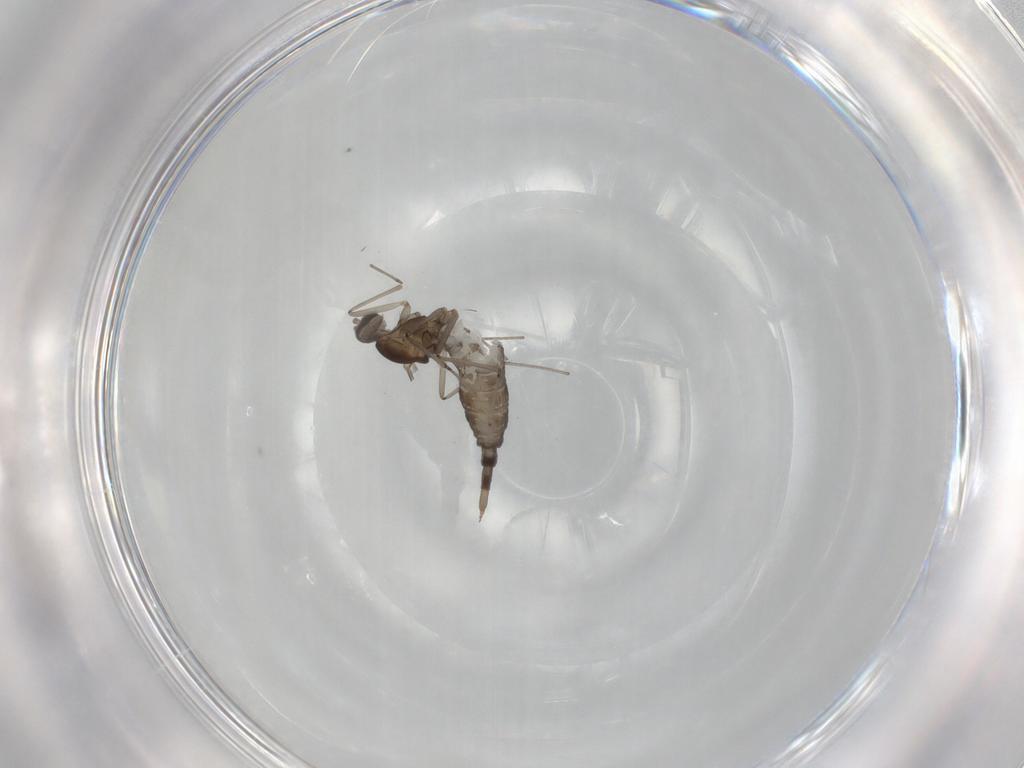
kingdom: Animalia
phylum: Arthropoda
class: Insecta
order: Diptera
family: Cecidomyiidae
